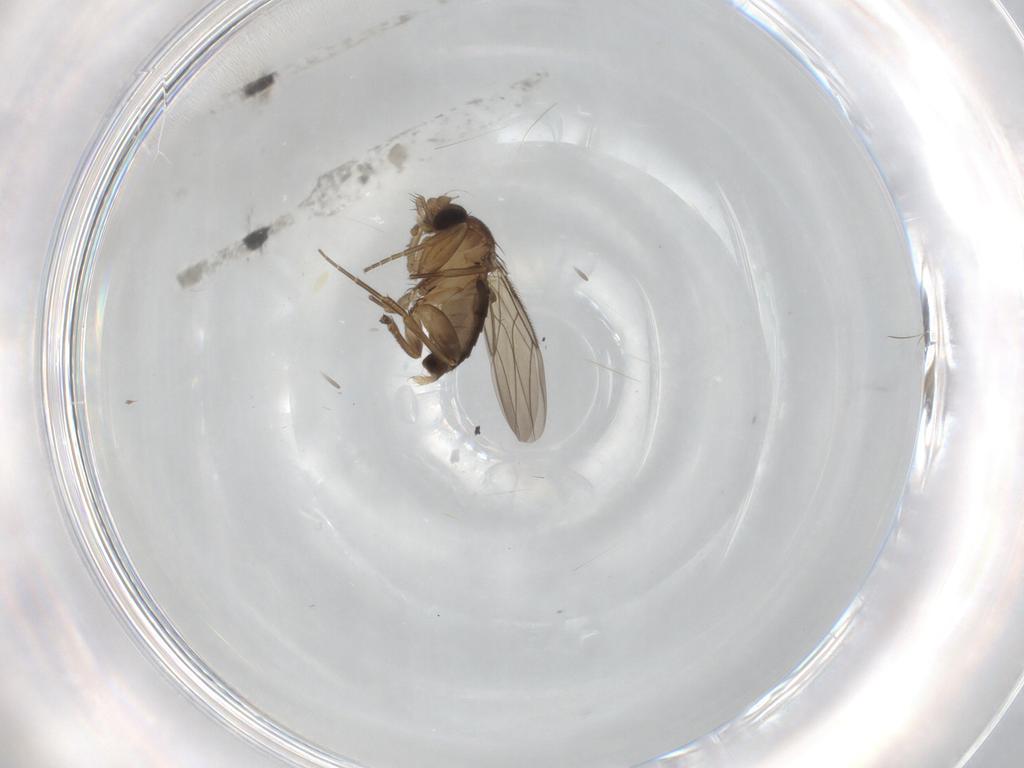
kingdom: Animalia
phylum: Arthropoda
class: Insecta
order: Diptera
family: Phoridae
